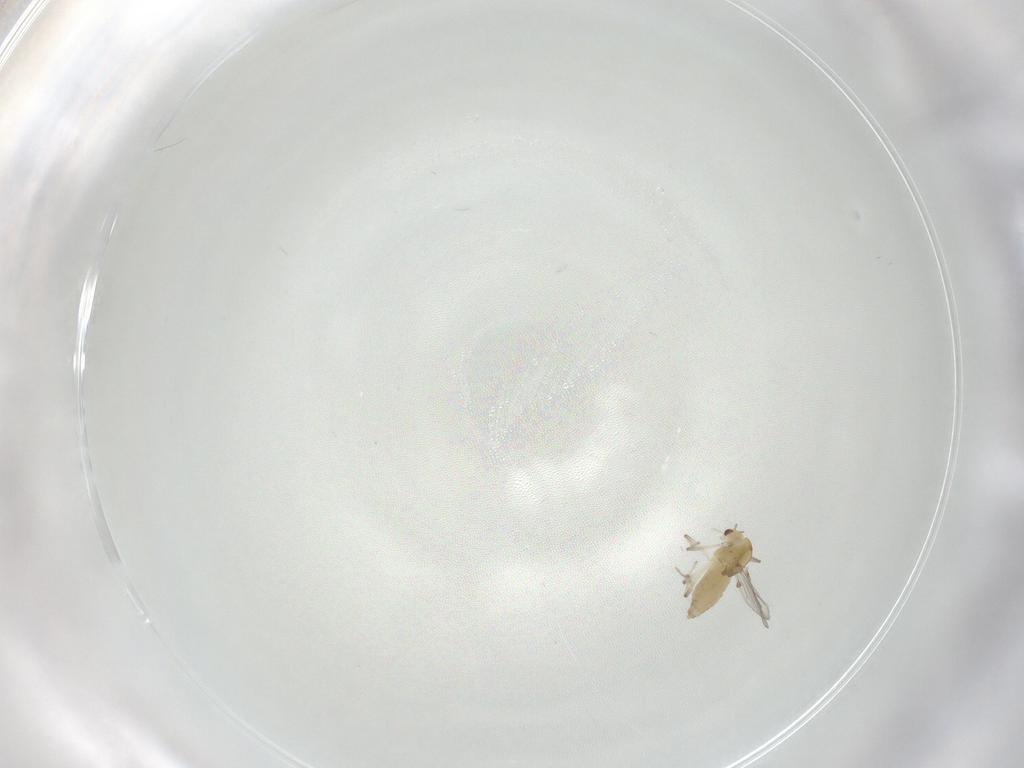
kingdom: Animalia
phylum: Arthropoda
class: Insecta
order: Diptera
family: Chironomidae
